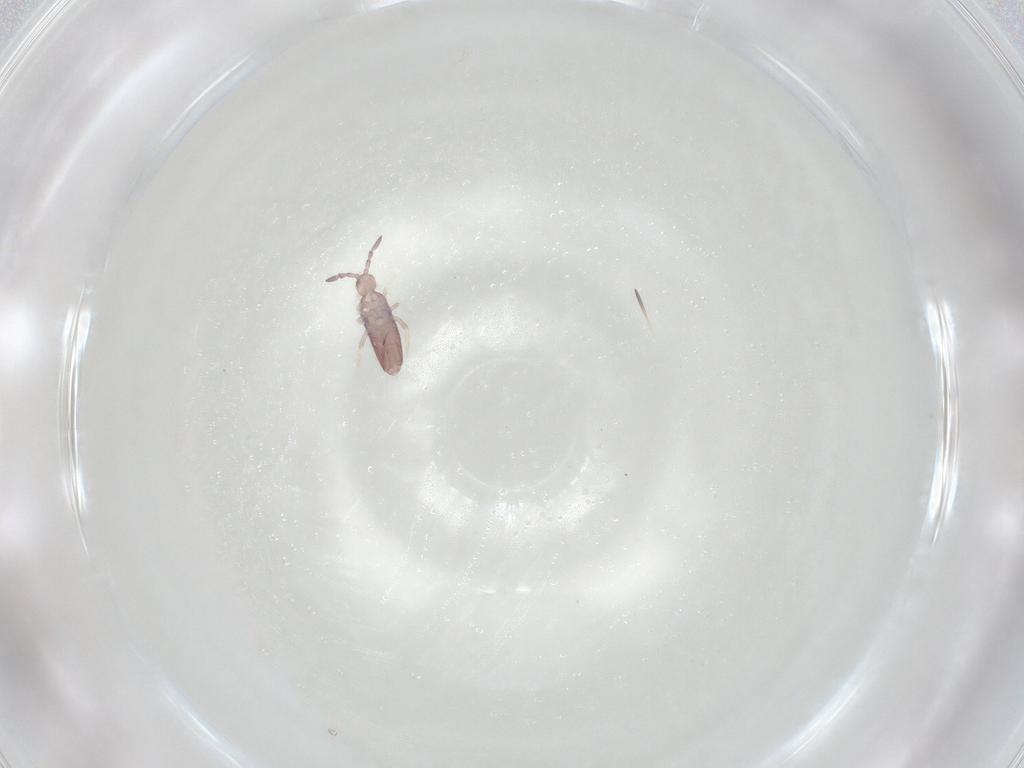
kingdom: Animalia
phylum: Arthropoda
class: Collembola
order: Entomobryomorpha
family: Entomobryidae
